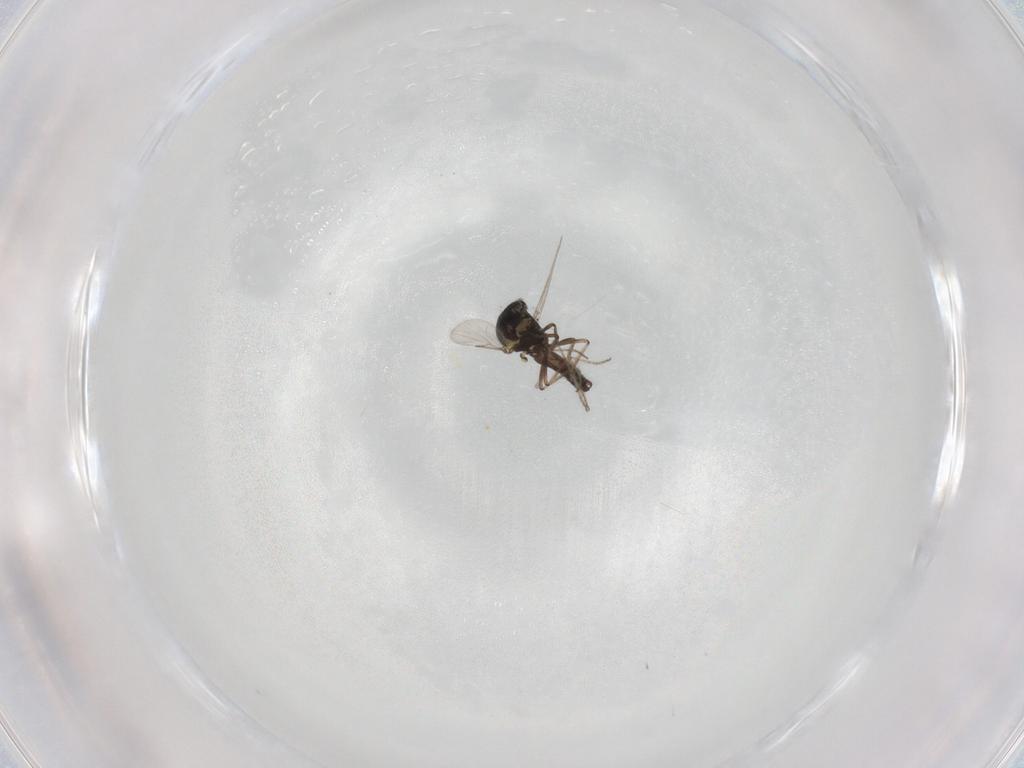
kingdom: Animalia
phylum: Arthropoda
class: Insecta
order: Diptera
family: Ceratopogonidae
